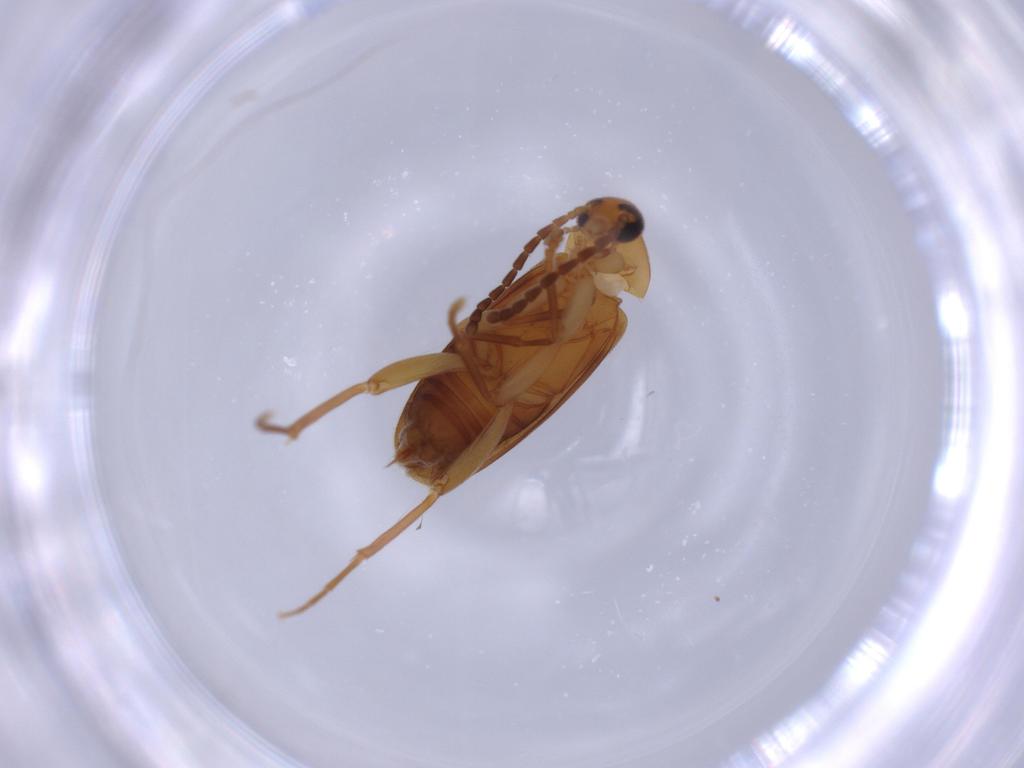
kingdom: Animalia
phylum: Arthropoda
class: Insecta
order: Coleoptera
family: Scraptiidae
